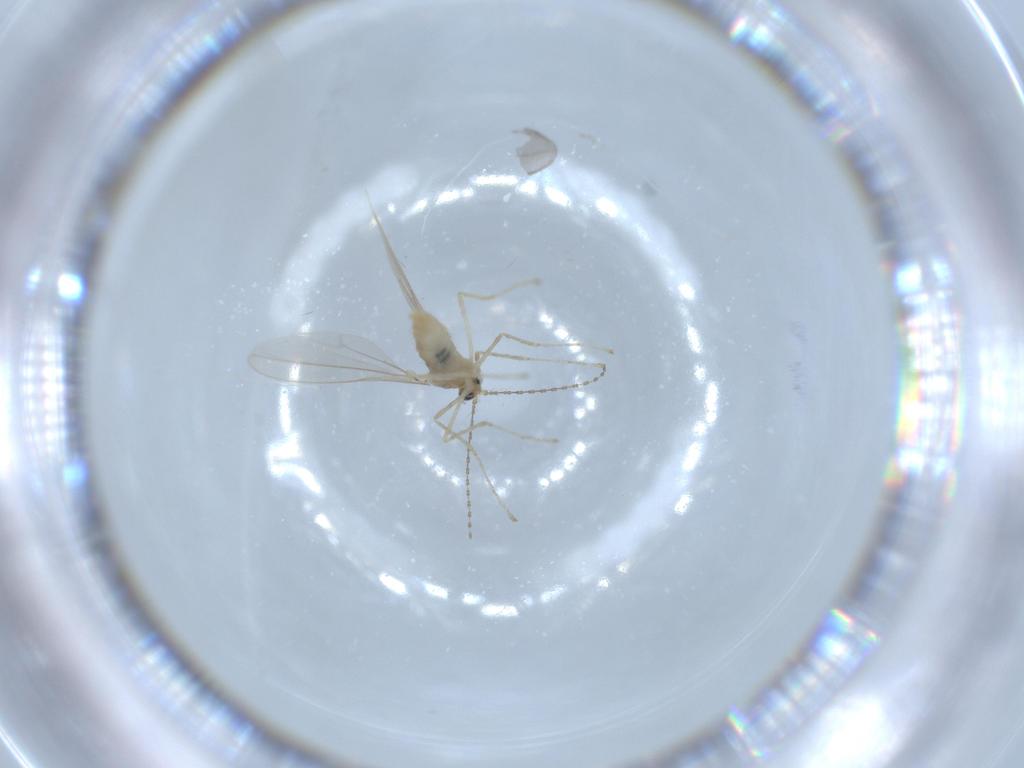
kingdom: Animalia
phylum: Arthropoda
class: Insecta
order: Diptera
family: Cecidomyiidae
